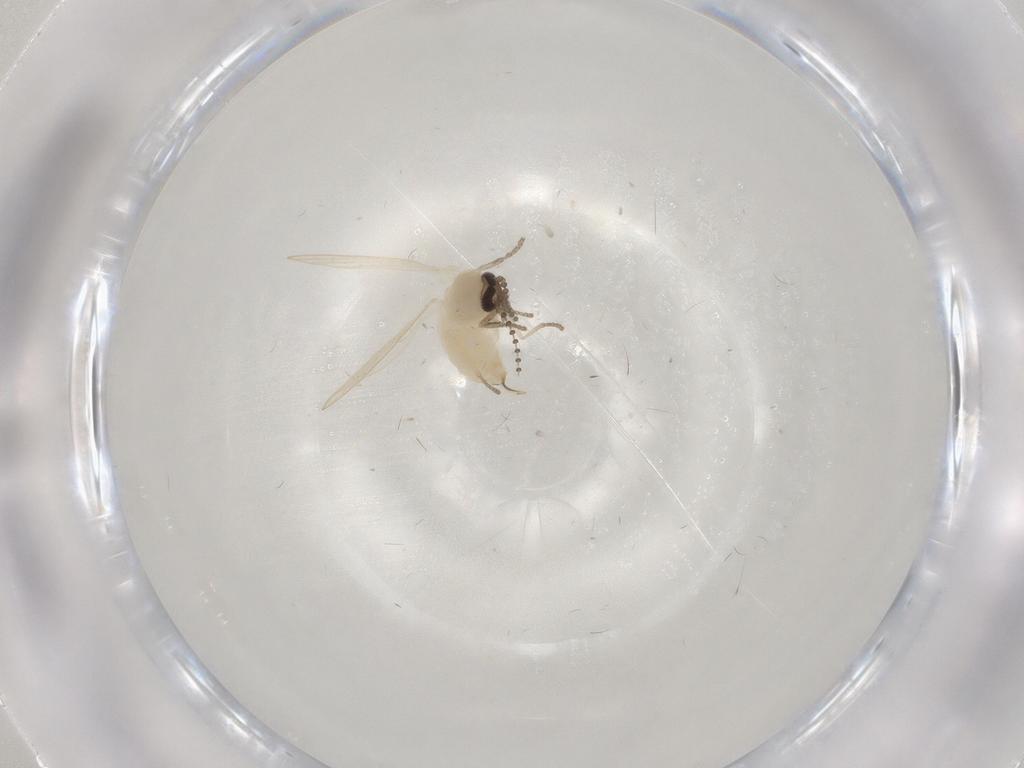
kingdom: Animalia
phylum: Arthropoda
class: Insecta
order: Diptera
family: Psychodidae
